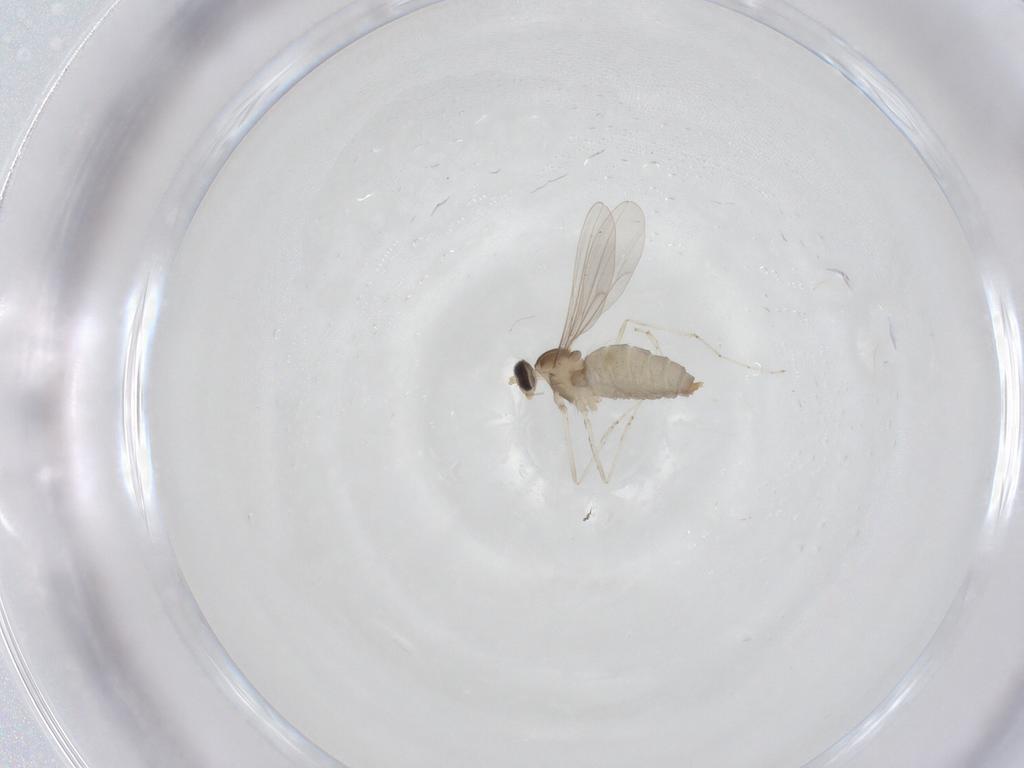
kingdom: Animalia
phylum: Arthropoda
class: Insecta
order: Diptera
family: Cecidomyiidae
